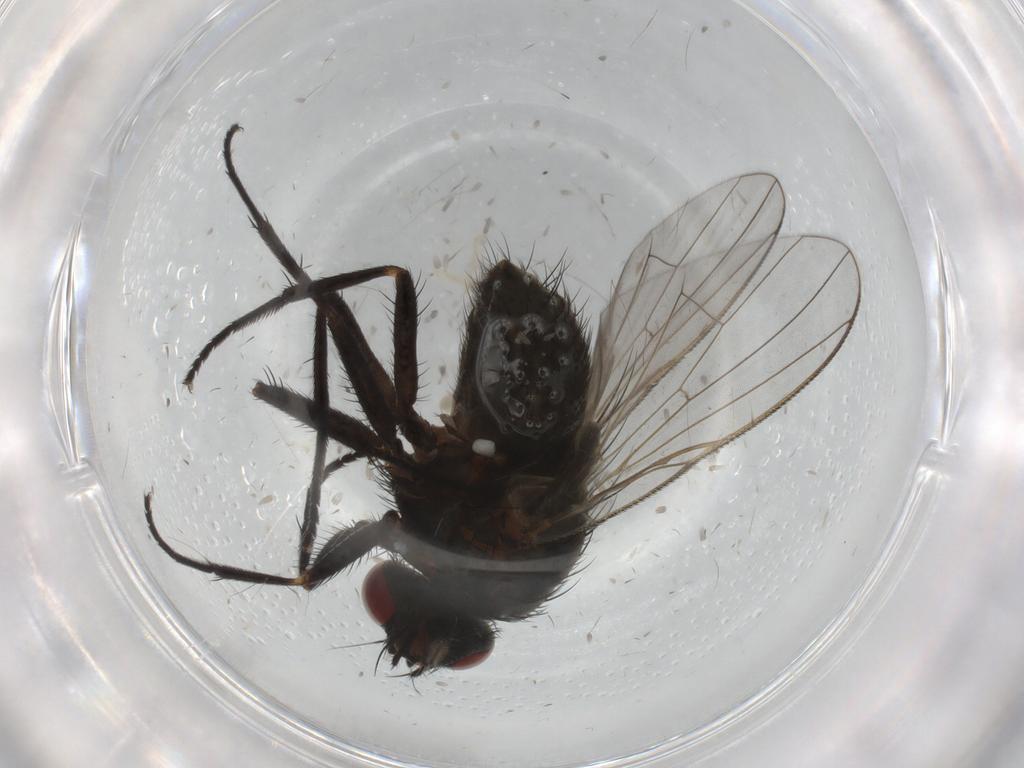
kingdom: Animalia
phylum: Arthropoda
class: Insecta
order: Diptera
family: Muscidae
